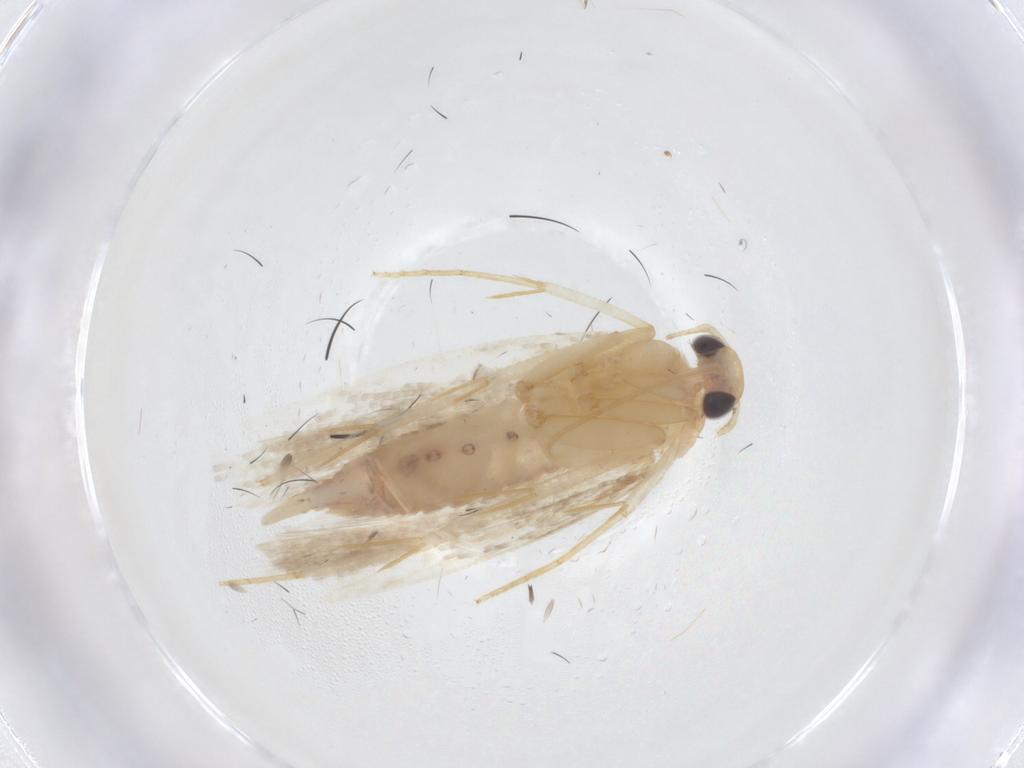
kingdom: Animalia
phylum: Arthropoda
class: Insecta
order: Lepidoptera
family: Gelechiidae
